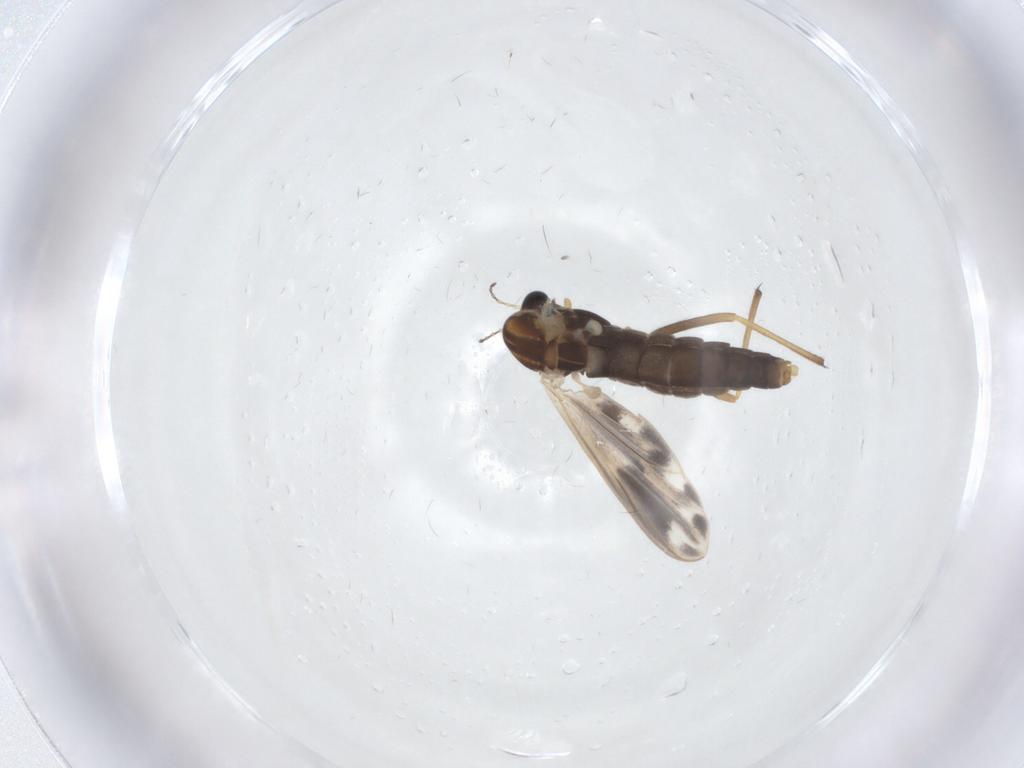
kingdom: Animalia
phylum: Arthropoda
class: Insecta
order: Diptera
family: Chironomidae
